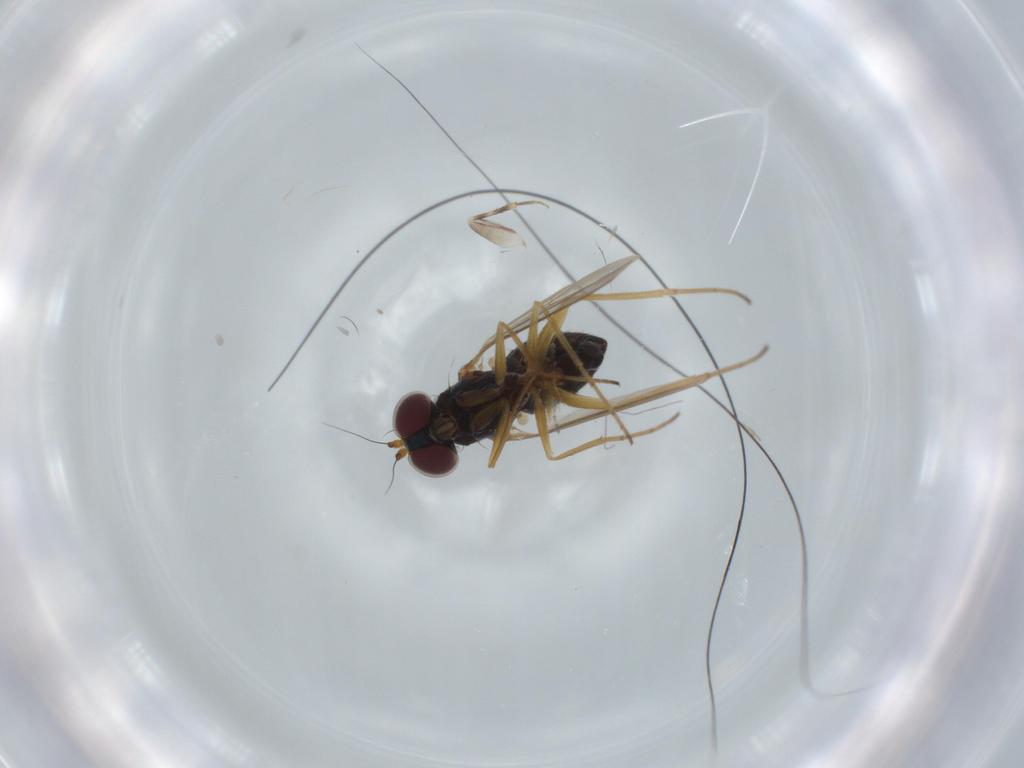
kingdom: Animalia
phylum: Arthropoda
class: Insecta
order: Diptera
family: Dolichopodidae
